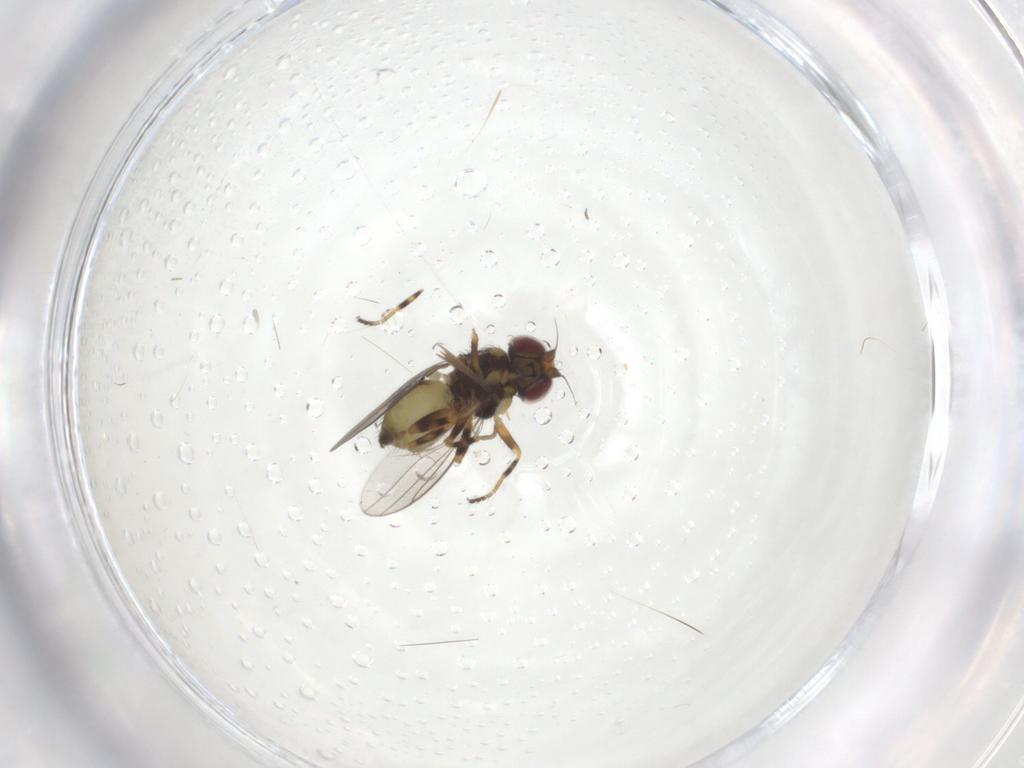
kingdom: Animalia
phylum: Arthropoda
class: Insecta
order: Diptera
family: Chloropidae
